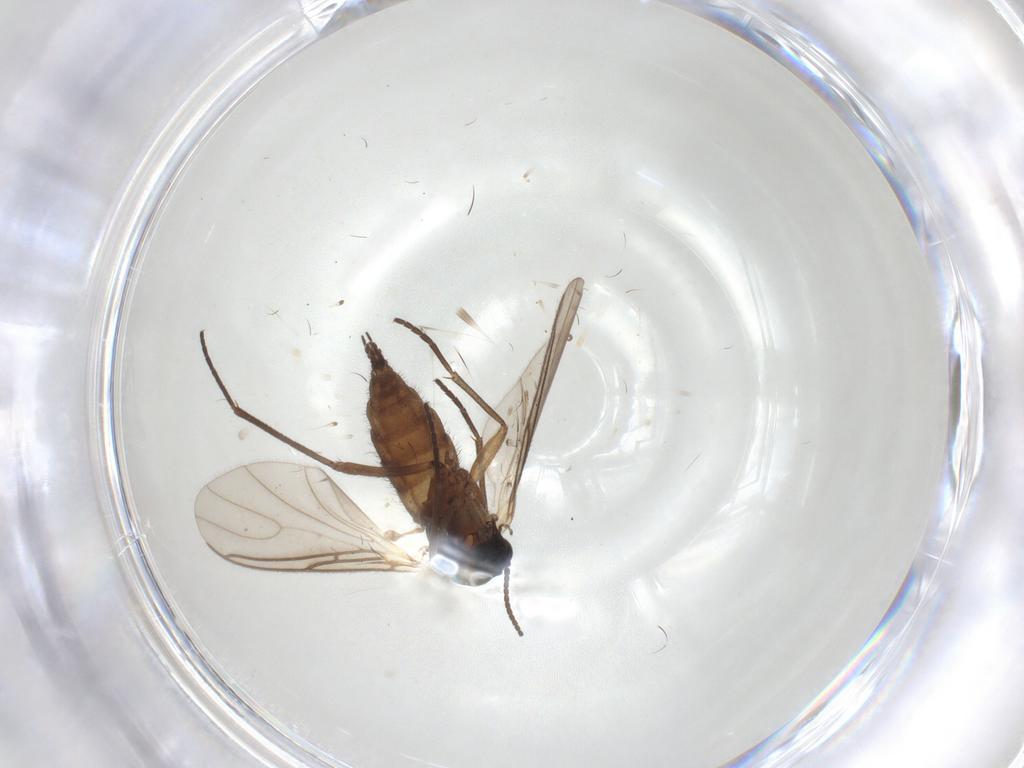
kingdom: Animalia
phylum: Arthropoda
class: Insecta
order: Diptera
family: Sciaridae
